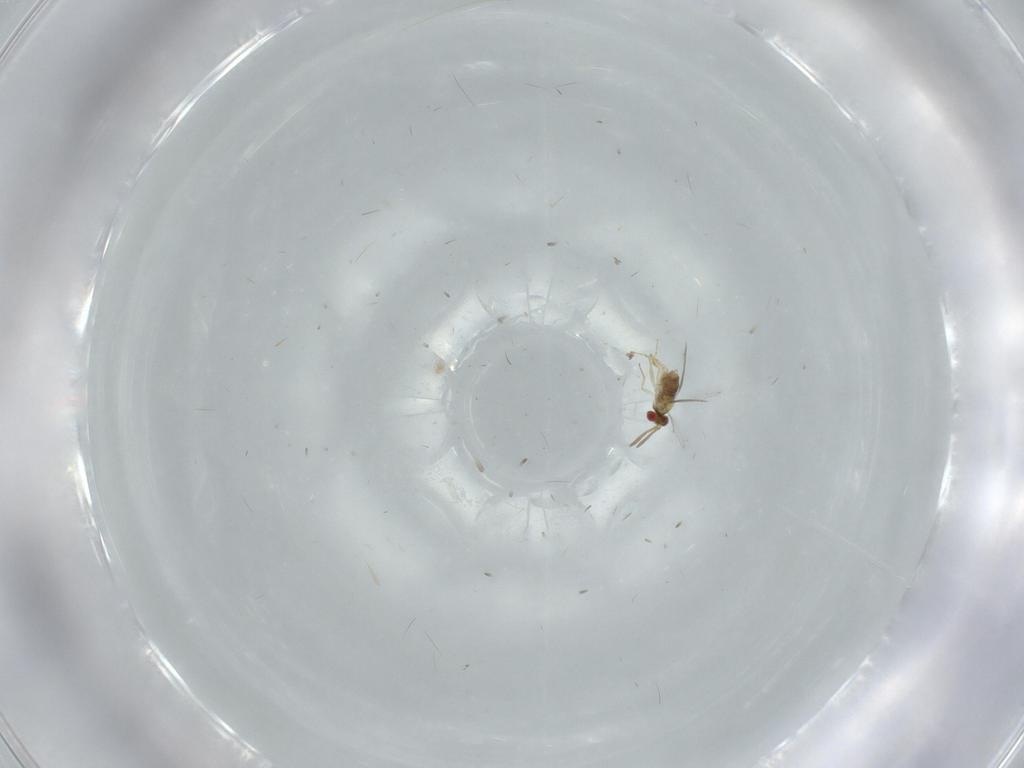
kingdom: Animalia
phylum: Arthropoda
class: Insecta
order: Hymenoptera
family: Aphelinidae
